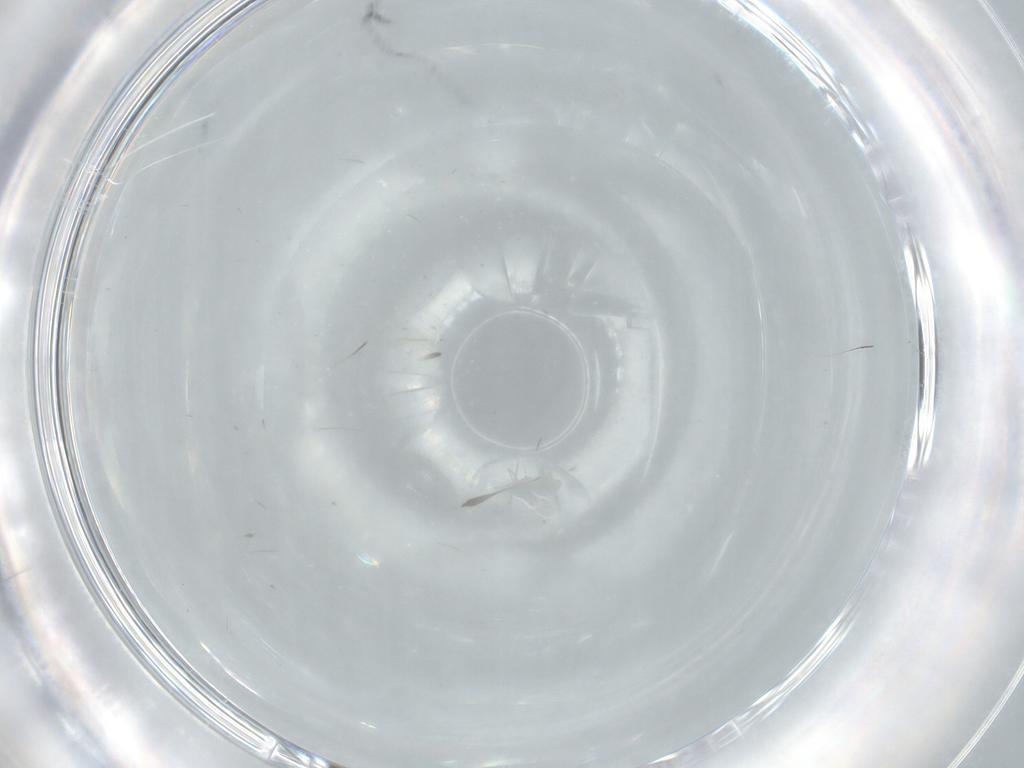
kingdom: Animalia
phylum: Arthropoda
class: Insecta
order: Diptera
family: Chironomidae
